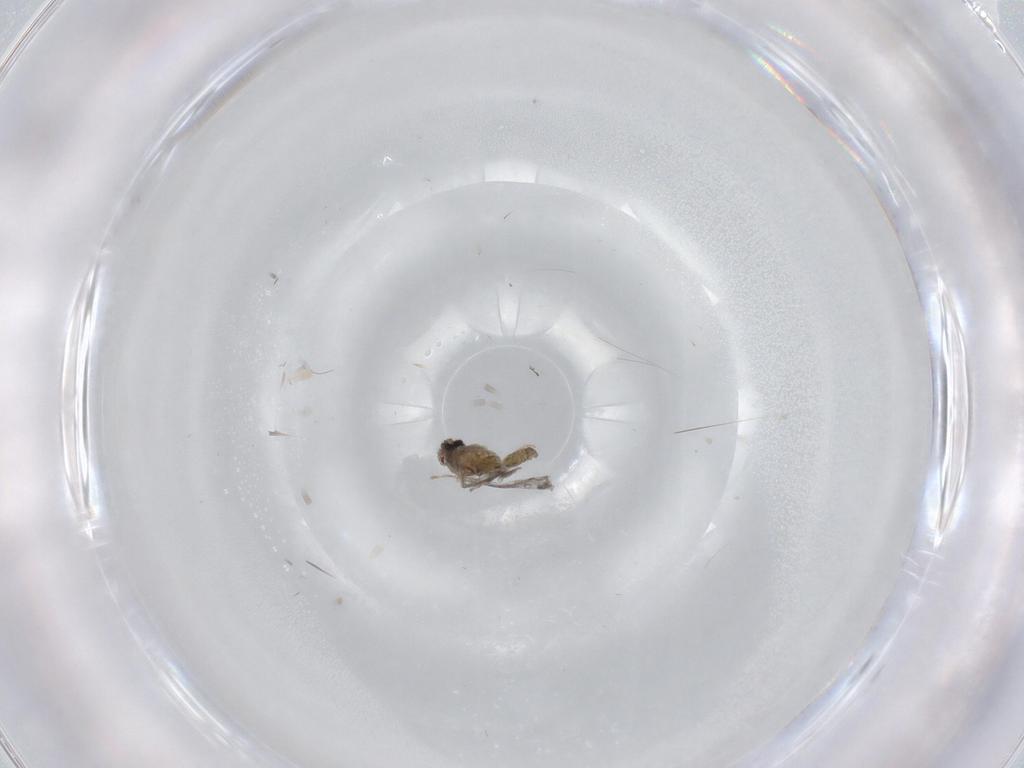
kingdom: Animalia
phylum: Arthropoda
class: Insecta
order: Diptera
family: Cecidomyiidae
